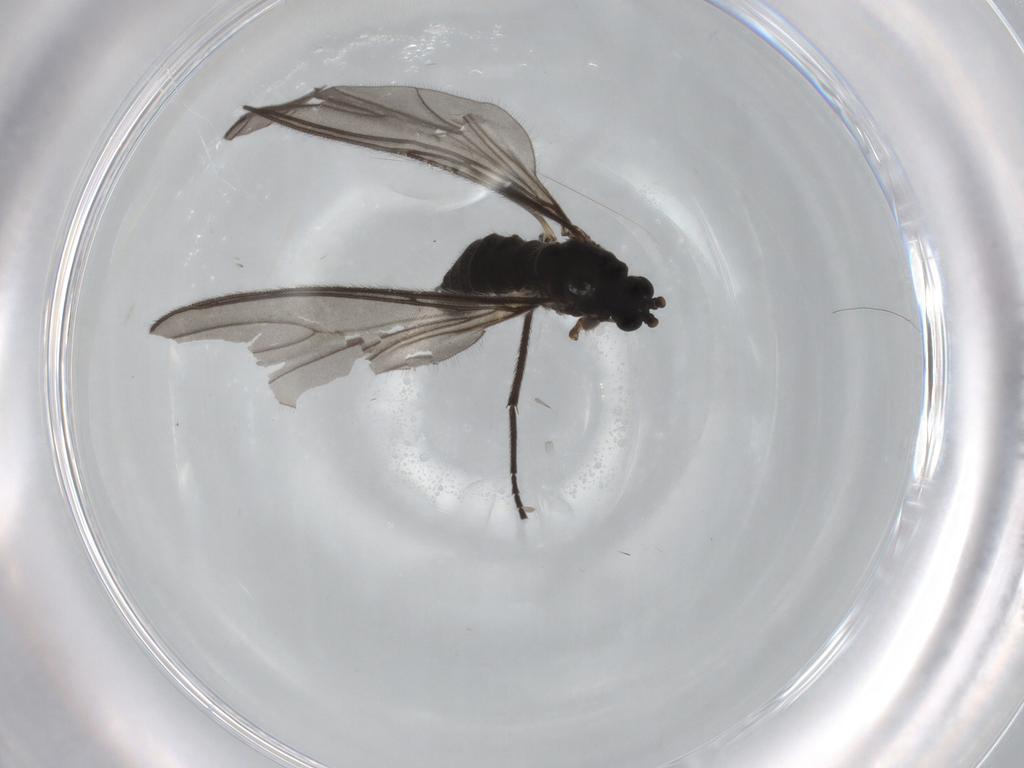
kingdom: Animalia
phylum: Arthropoda
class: Insecta
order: Diptera
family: Sciaridae
